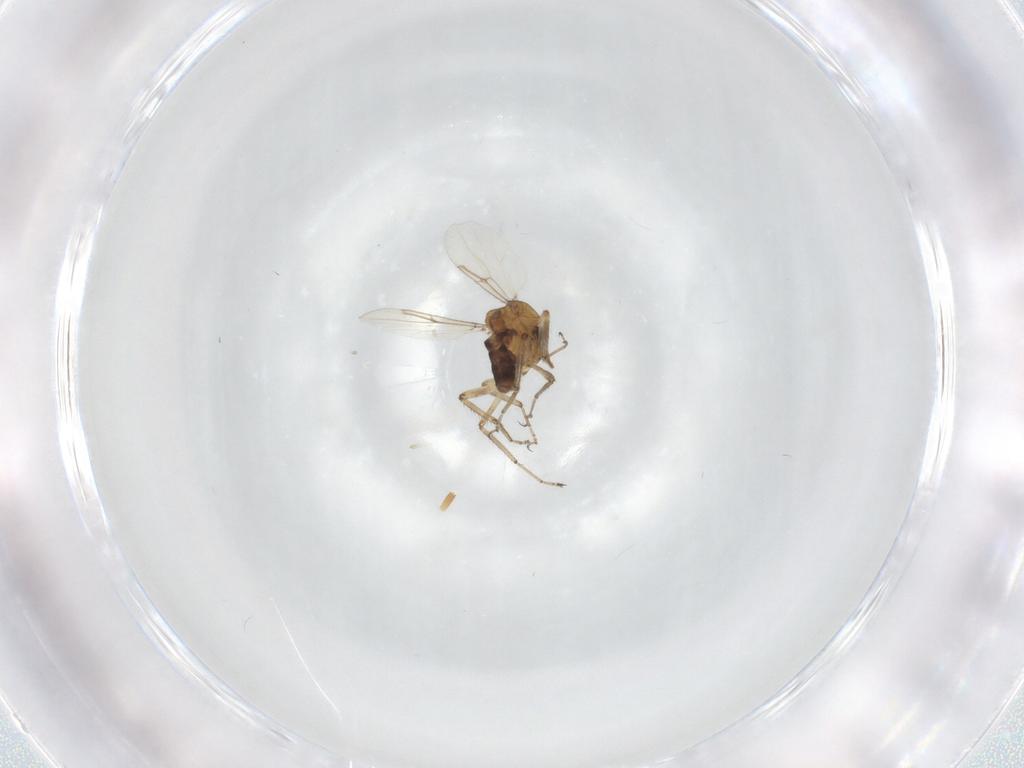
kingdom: Animalia
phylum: Arthropoda
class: Insecta
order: Diptera
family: Ceratopogonidae
